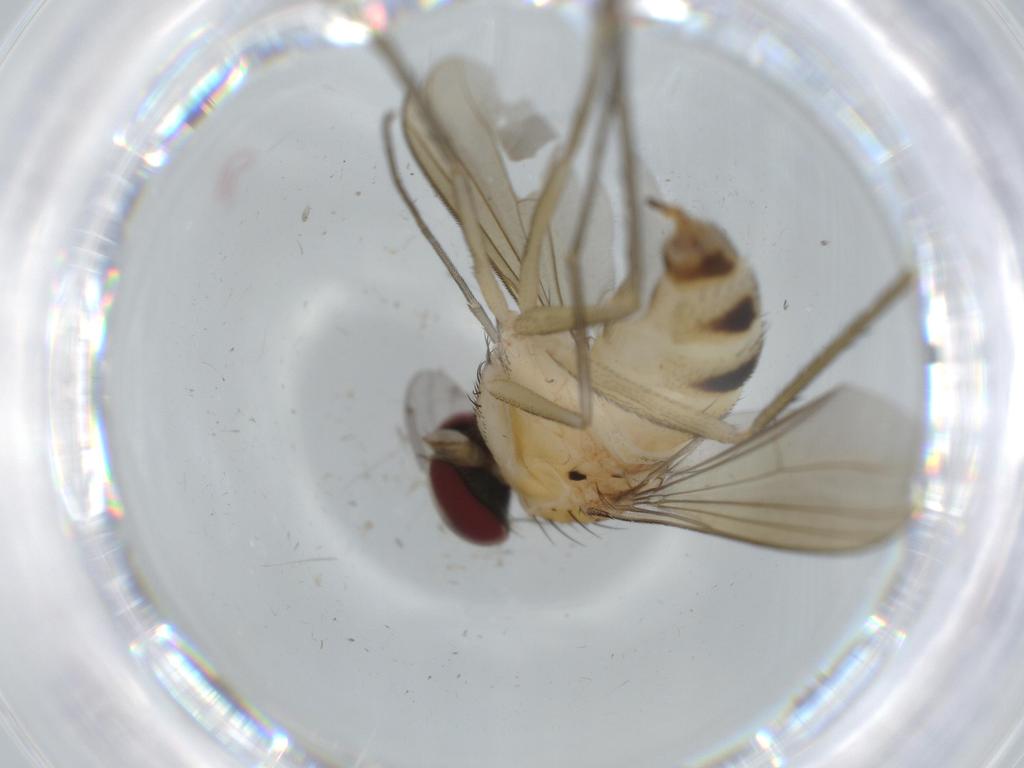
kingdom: Animalia
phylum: Arthropoda
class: Insecta
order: Diptera
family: Dolichopodidae
